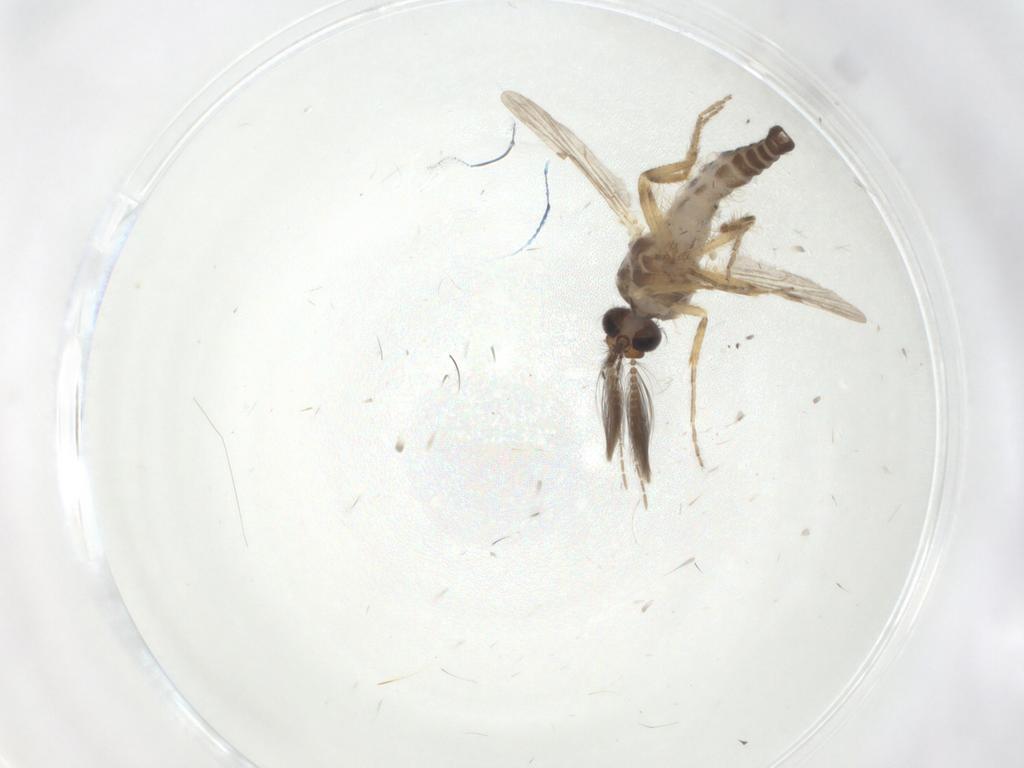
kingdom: Animalia
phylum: Arthropoda
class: Insecta
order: Diptera
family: Ceratopogonidae
